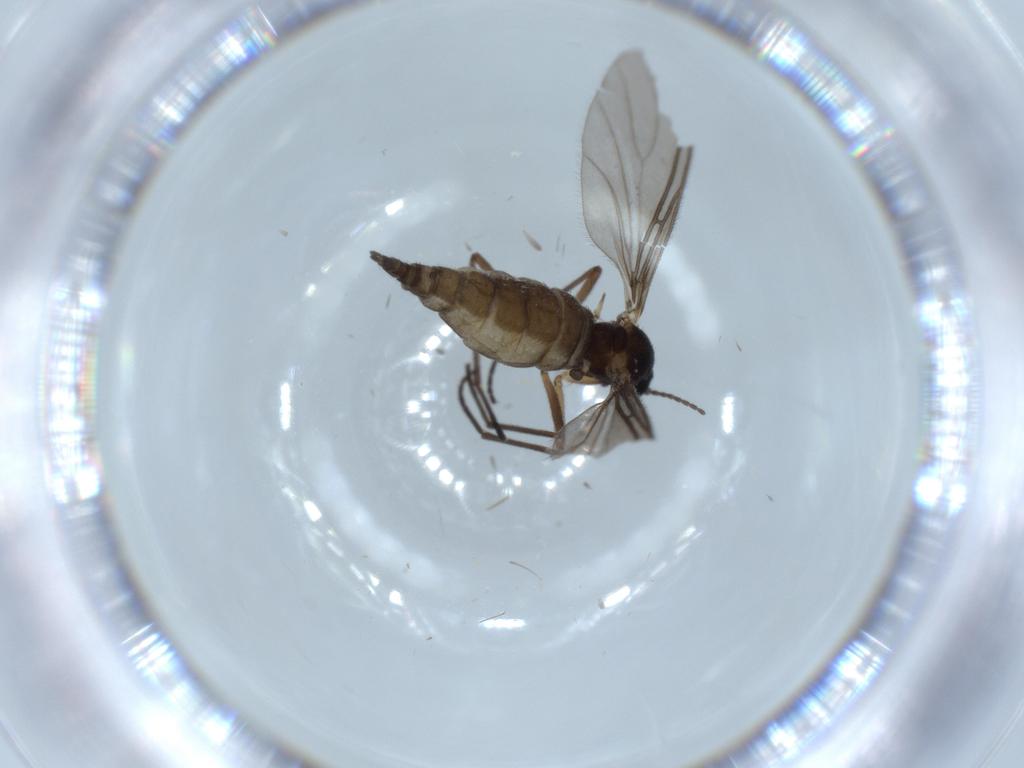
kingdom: Animalia
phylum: Arthropoda
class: Insecta
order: Diptera
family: Sciaridae
